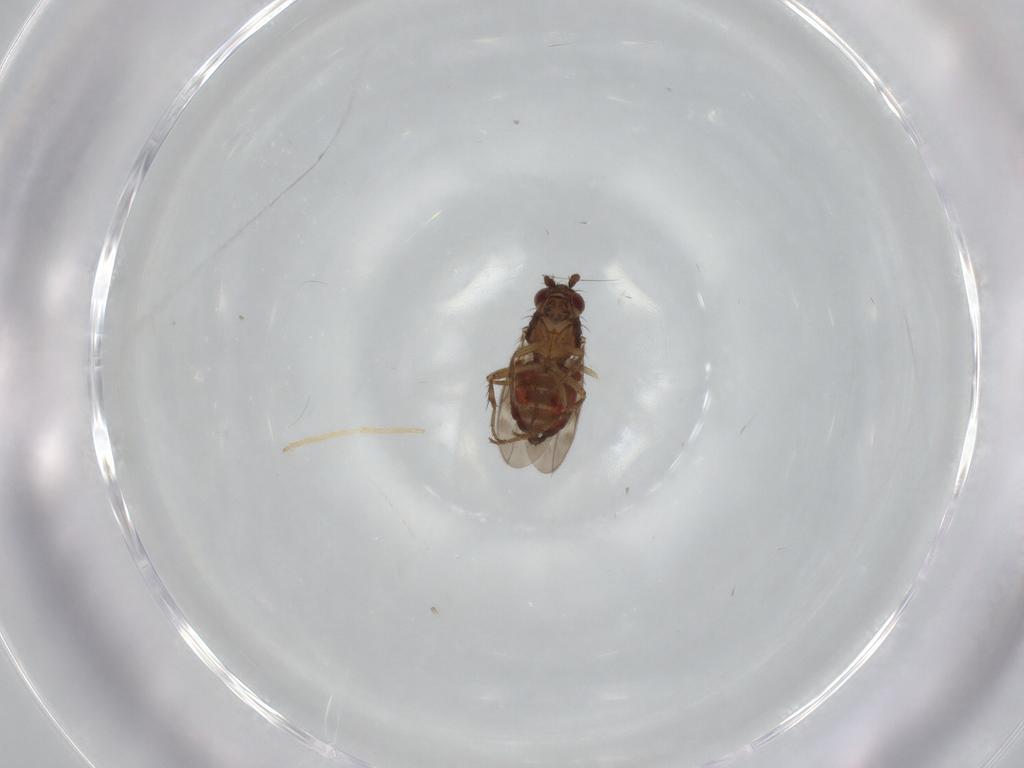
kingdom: Animalia
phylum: Arthropoda
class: Insecta
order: Diptera
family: Sphaeroceridae
